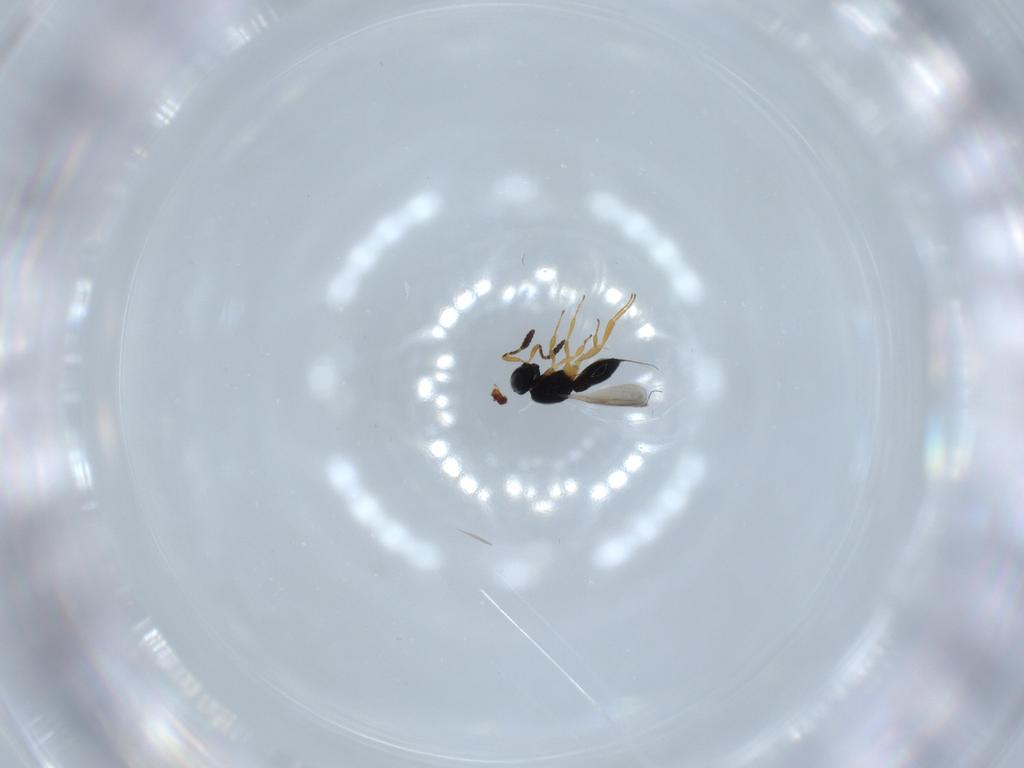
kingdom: Animalia
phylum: Arthropoda
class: Insecta
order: Hymenoptera
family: Scelionidae
